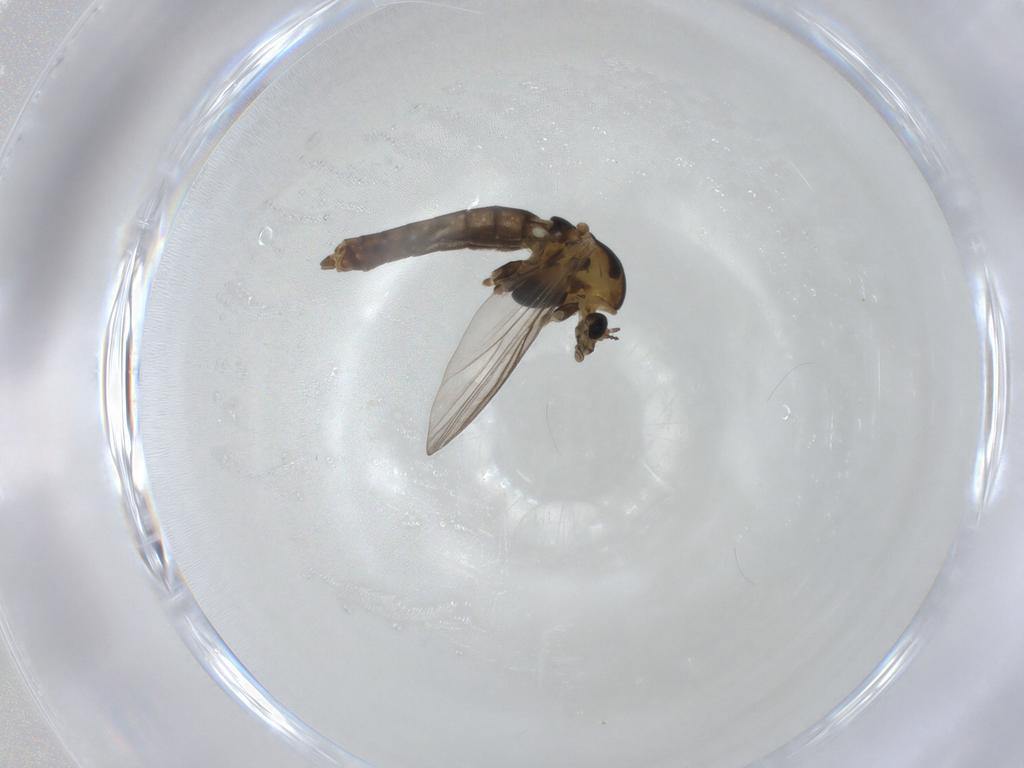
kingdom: Animalia
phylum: Arthropoda
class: Insecta
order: Diptera
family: Chironomidae
